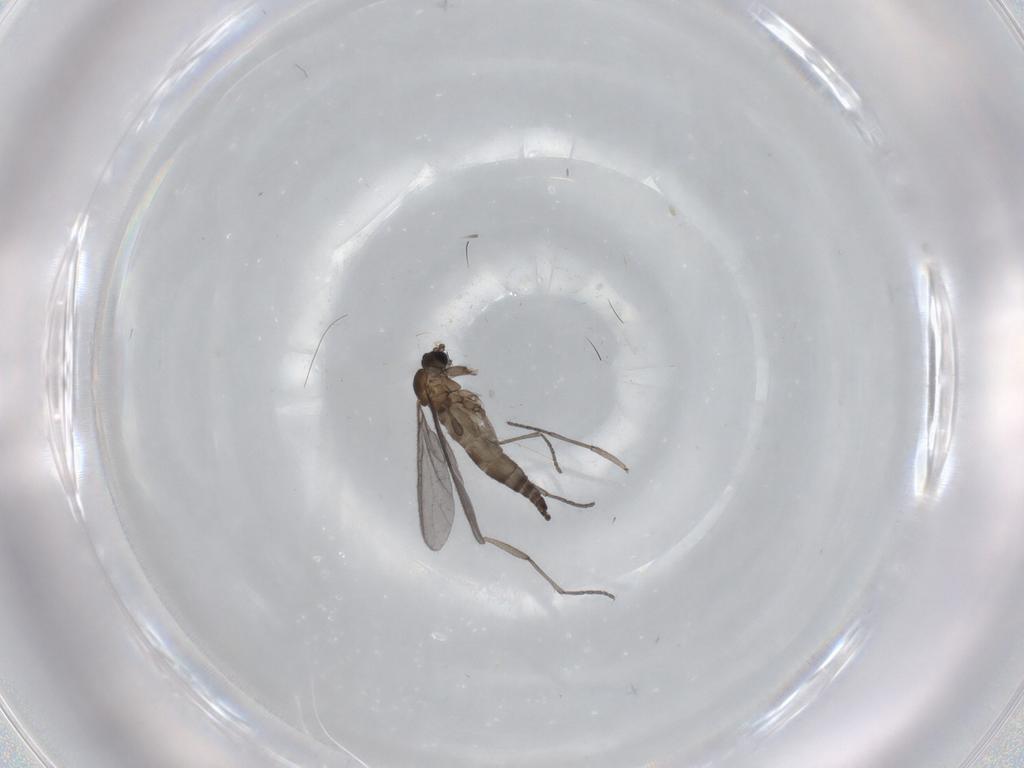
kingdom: Animalia
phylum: Arthropoda
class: Insecta
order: Diptera
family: Sciaridae
